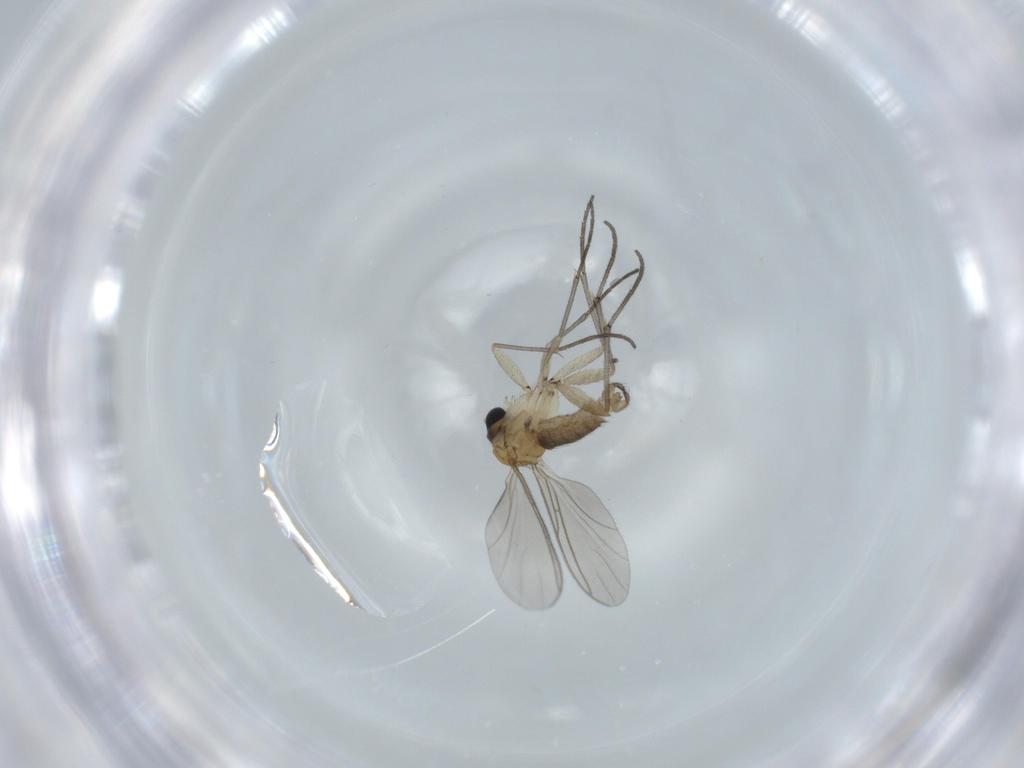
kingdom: Animalia
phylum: Arthropoda
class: Insecta
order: Diptera
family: Sciaridae
